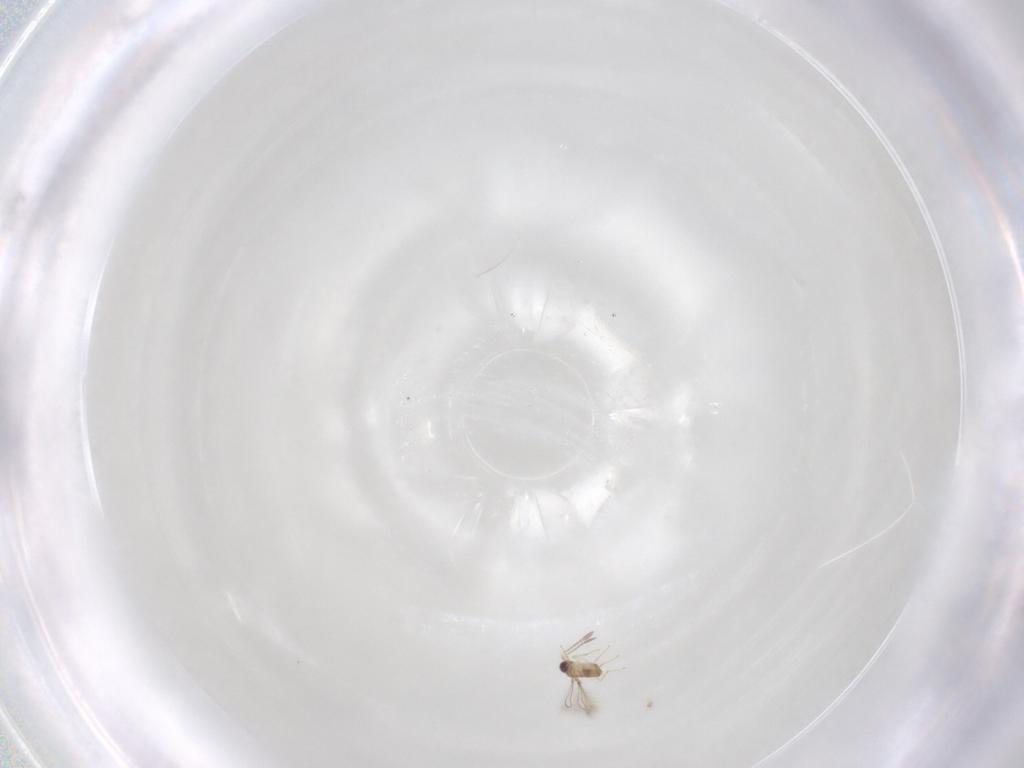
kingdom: Animalia
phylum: Arthropoda
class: Insecta
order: Hymenoptera
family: Mymaridae
